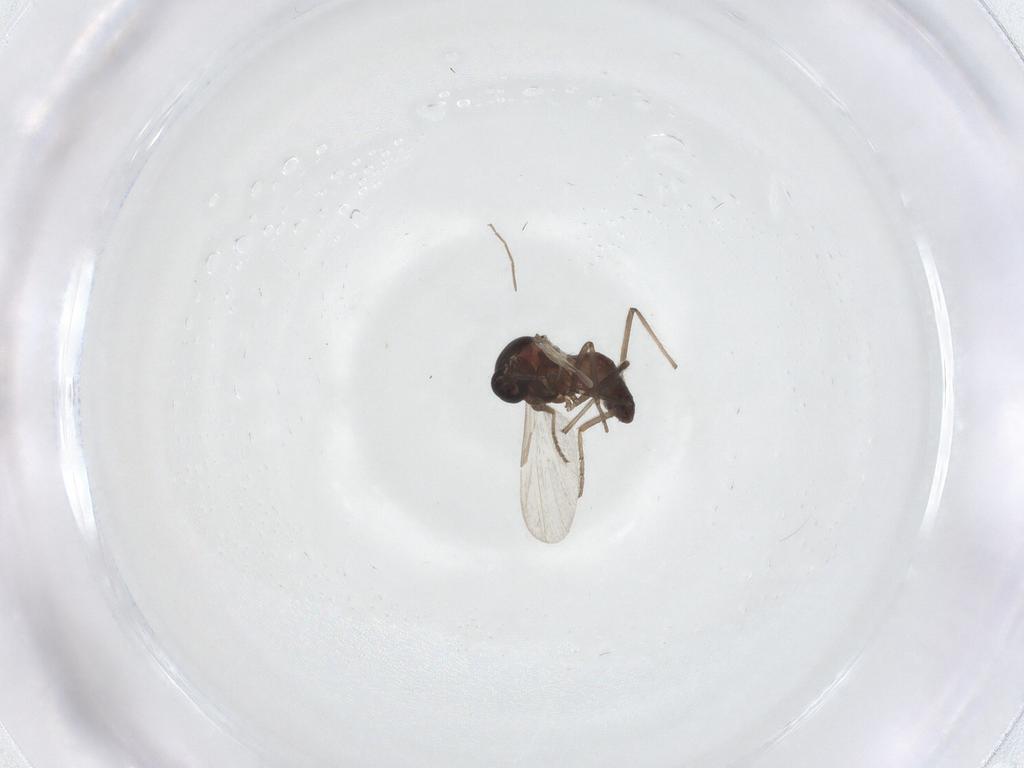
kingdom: Animalia
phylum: Arthropoda
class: Insecta
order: Diptera
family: Ceratopogonidae
